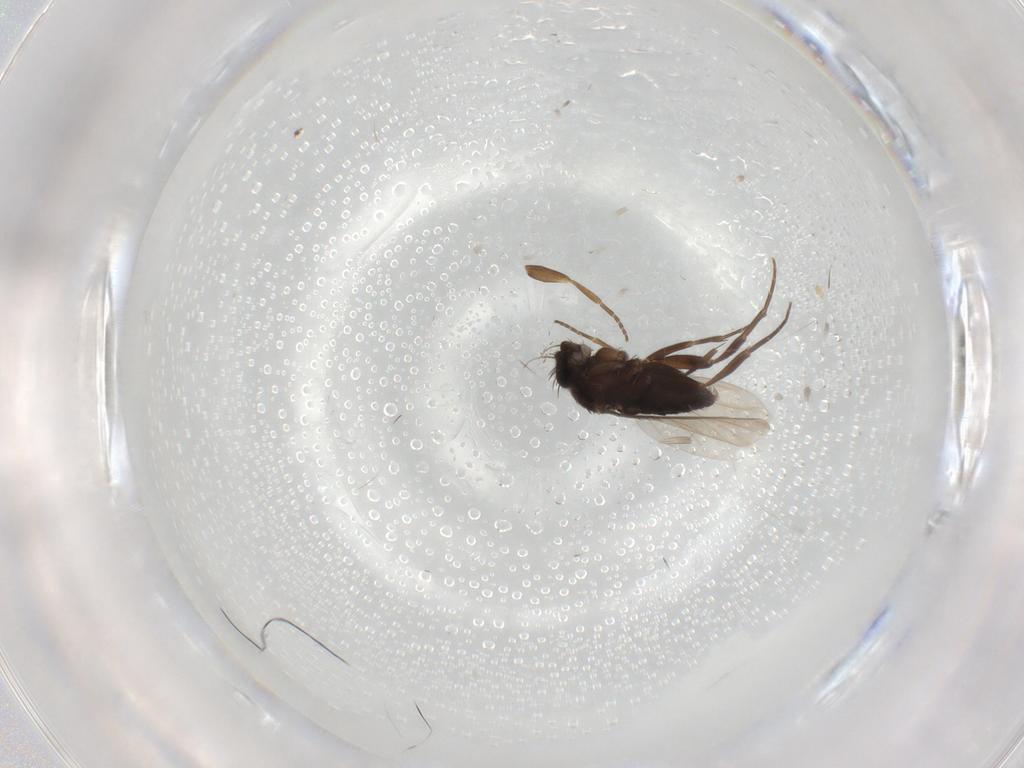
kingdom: Animalia
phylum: Arthropoda
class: Insecta
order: Diptera
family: Phoridae
